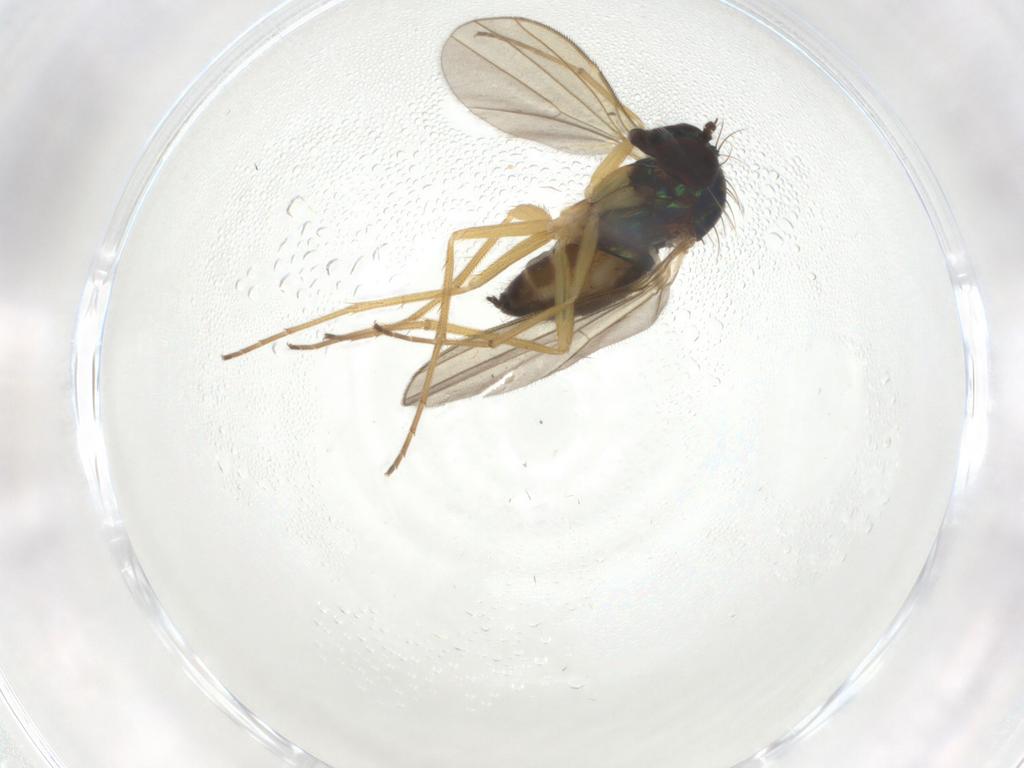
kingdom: Animalia
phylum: Arthropoda
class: Insecta
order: Diptera
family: Dolichopodidae
